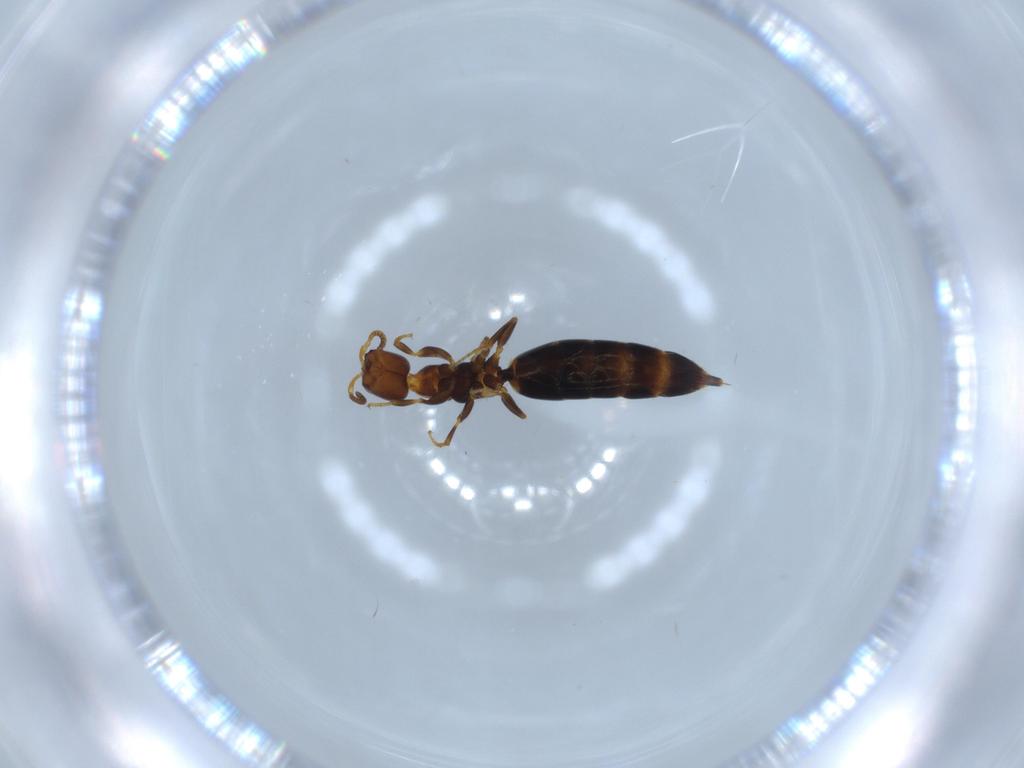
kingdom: Animalia
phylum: Arthropoda
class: Insecta
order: Hymenoptera
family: Bethylidae
